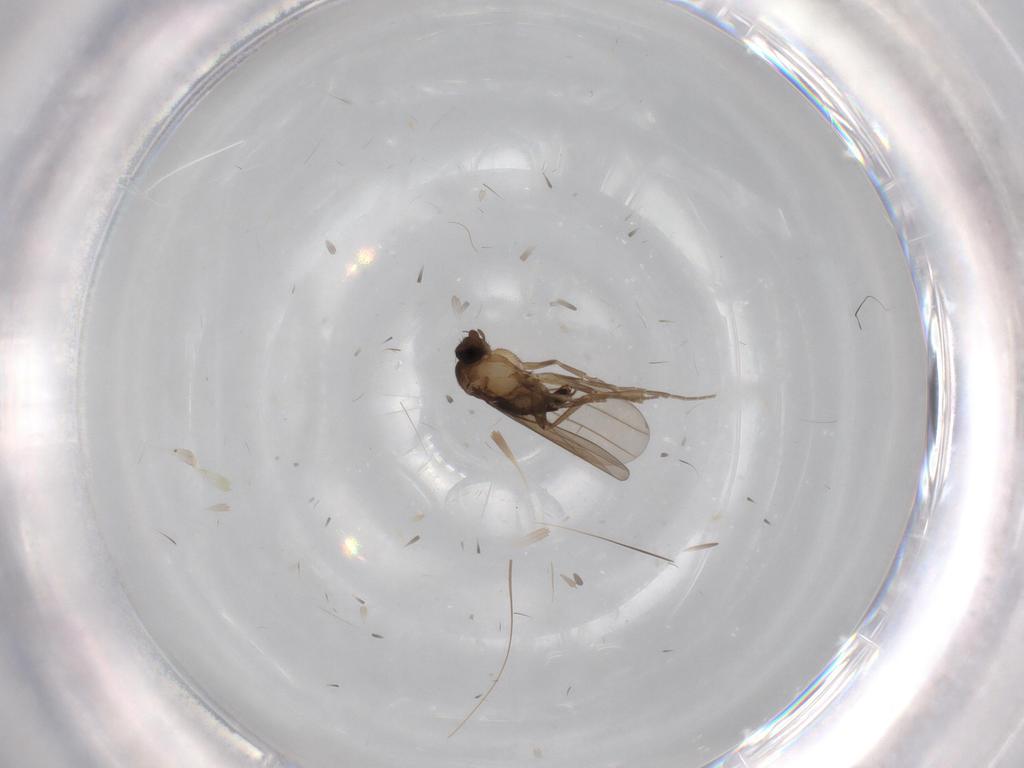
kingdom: Animalia
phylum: Arthropoda
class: Insecta
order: Diptera
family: Phoridae
